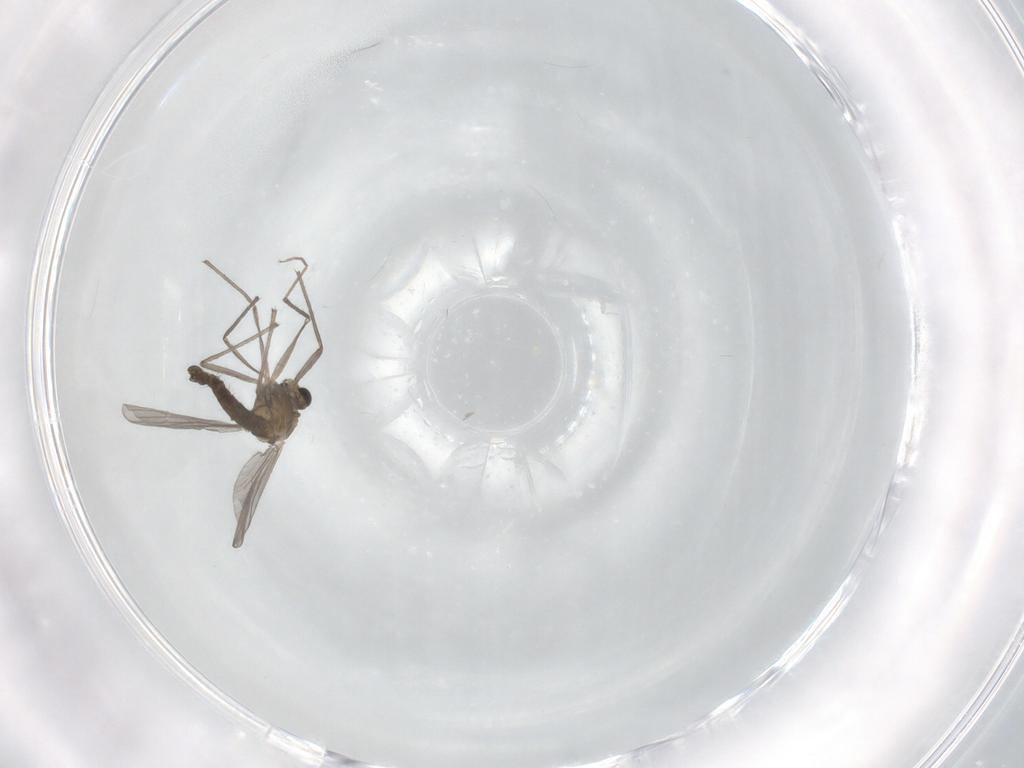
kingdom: Animalia
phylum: Arthropoda
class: Insecta
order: Diptera
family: Chironomidae
